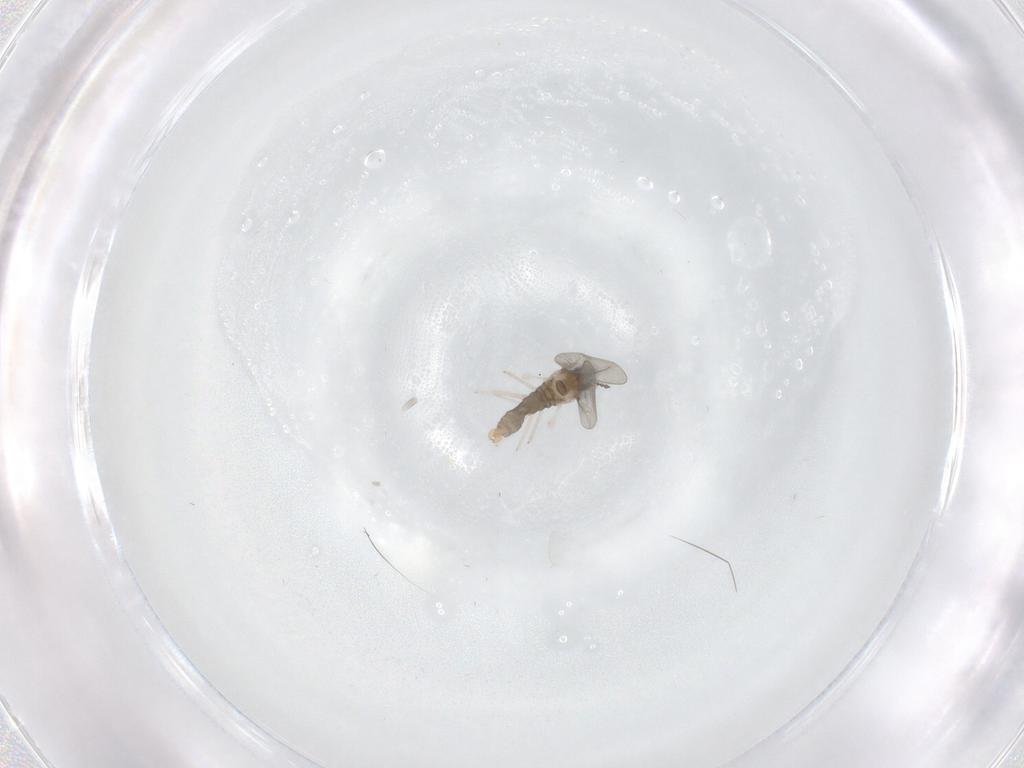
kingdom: Animalia
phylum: Arthropoda
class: Insecta
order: Diptera
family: Cecidomyiidae
